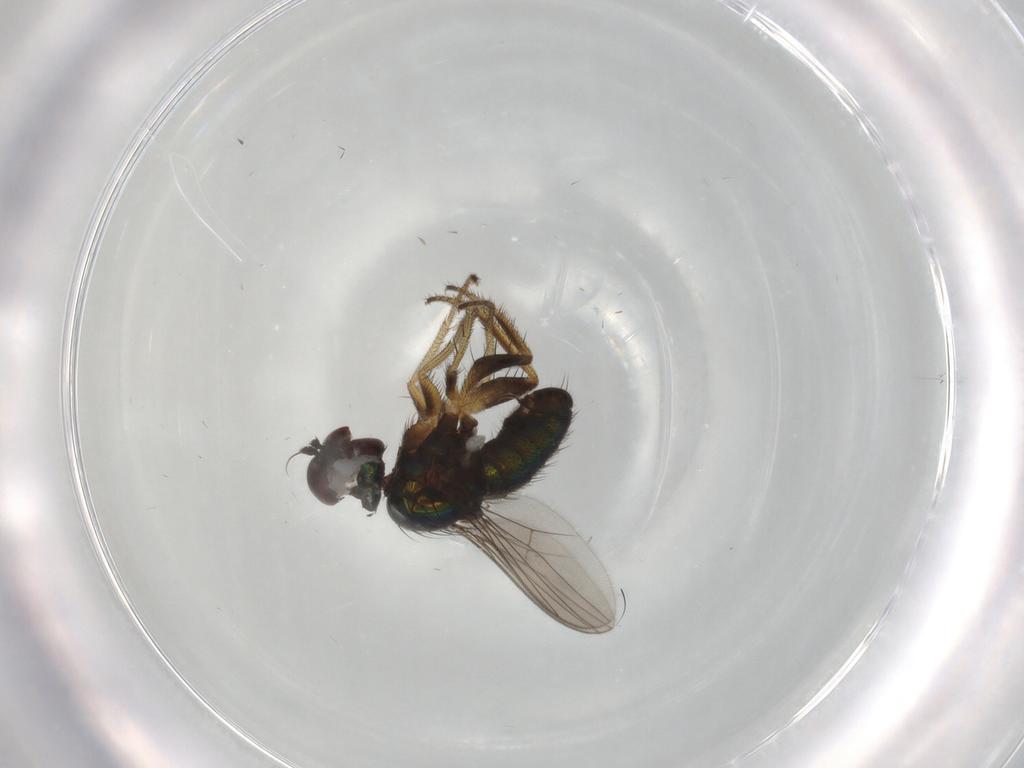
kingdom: Animalia
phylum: Arthropoda
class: Insecta
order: Diptera
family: Dolichopodidae
